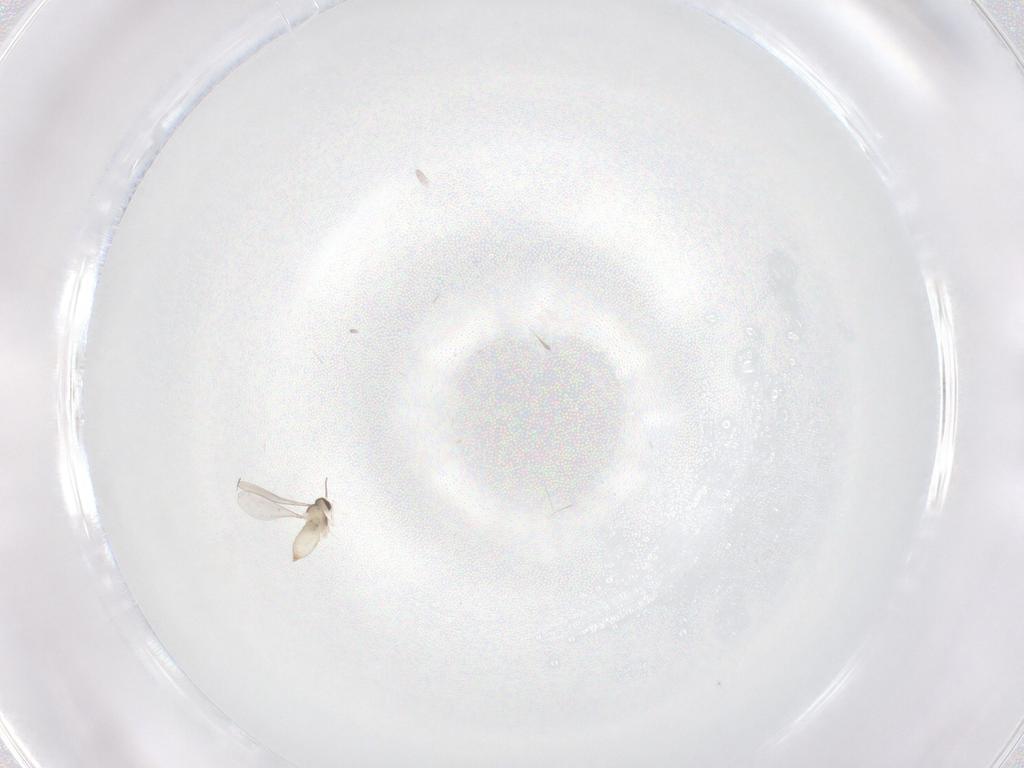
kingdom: Animalia
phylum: Arthropoda
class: Insecta
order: Diptera
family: Cecidomyiidae
